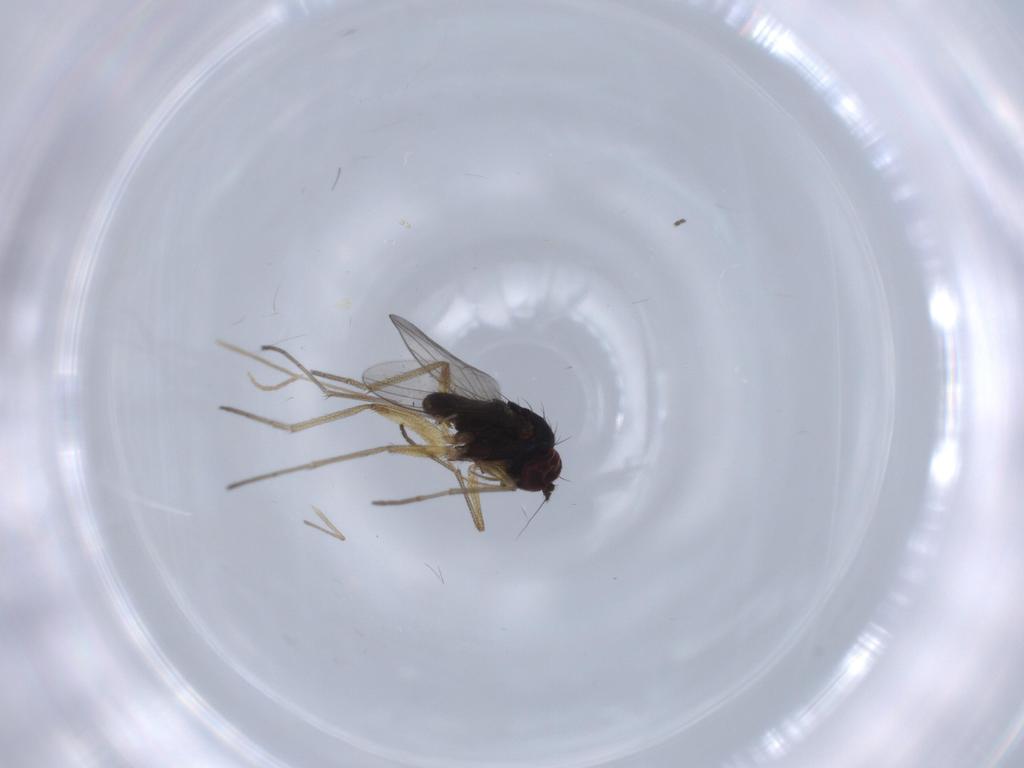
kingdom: Animalia
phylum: Arthropoda
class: Insecta
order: Diptera
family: Dolichopodidae
